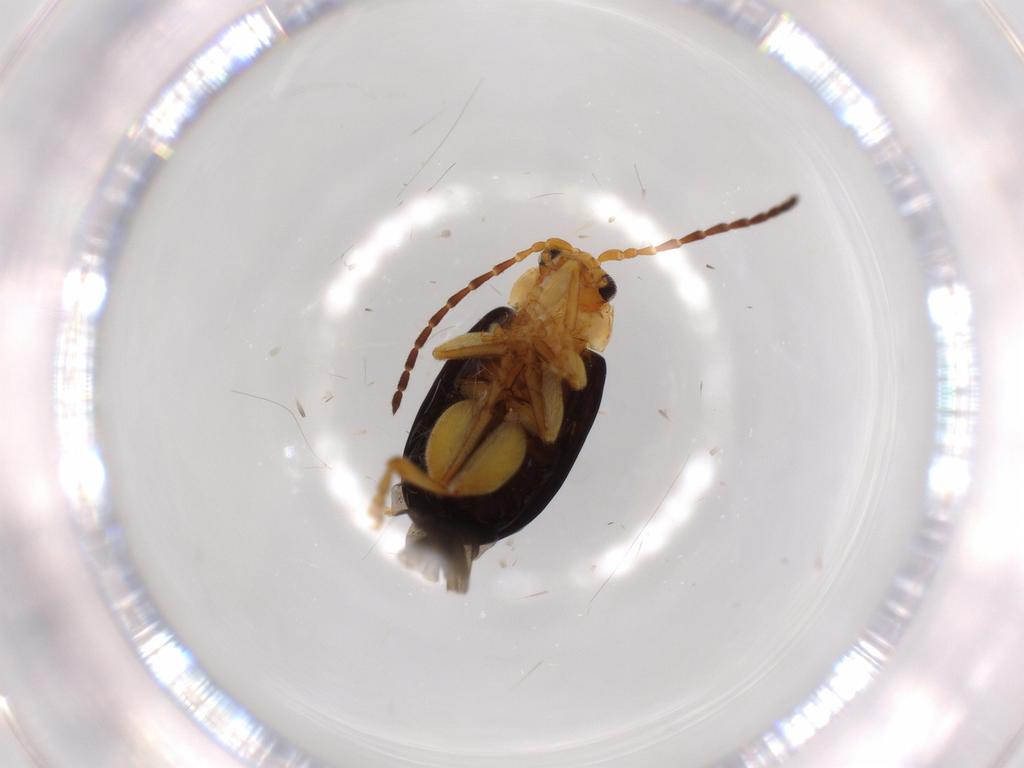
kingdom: Animalia
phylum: Arthropoda
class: Insecta
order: Coleoptera
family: Chrysomelidae
